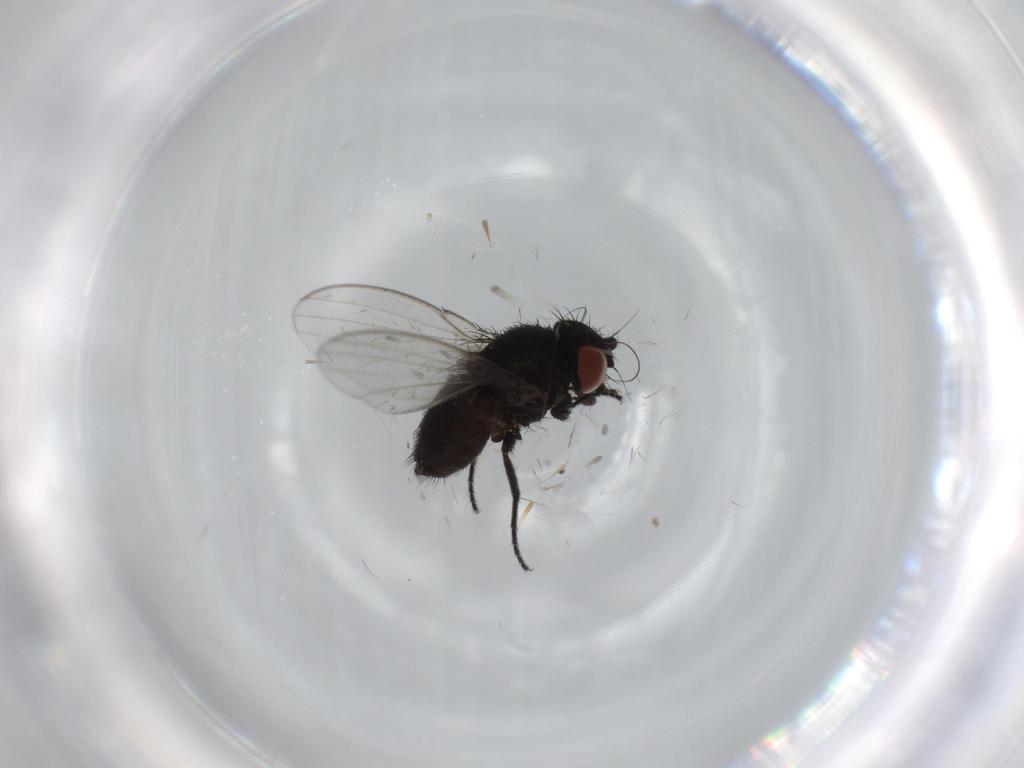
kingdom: Animalia
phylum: Arthropoda
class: Insecta
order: Diptera
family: Milichiidae
